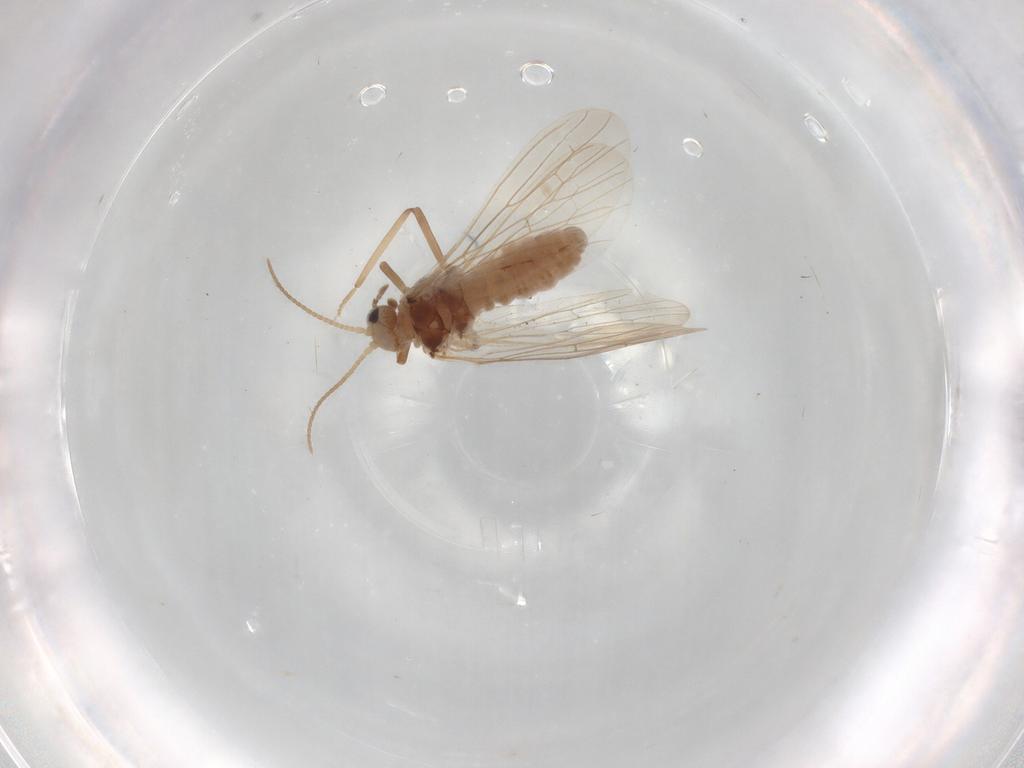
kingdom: Animalia
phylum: Arthropoda
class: Insecta
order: Neuroptera
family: Coniopterygidae
